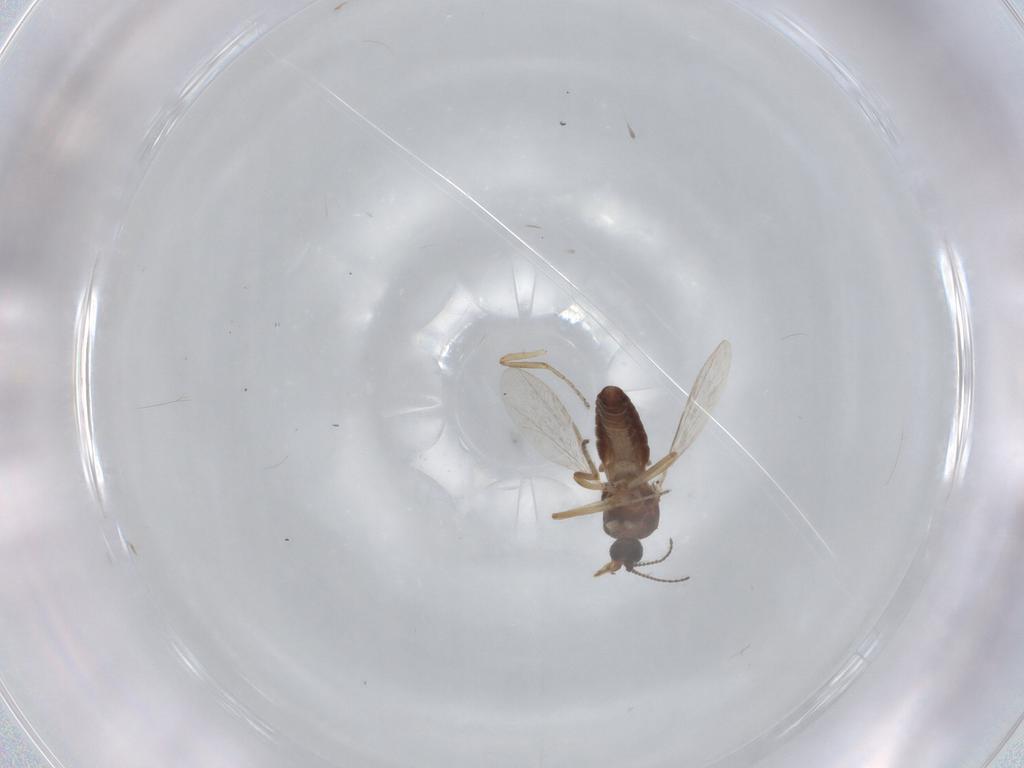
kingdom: Animalia
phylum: Arthropoda
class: Insecta
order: Diptera
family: Ceratopogonidae
